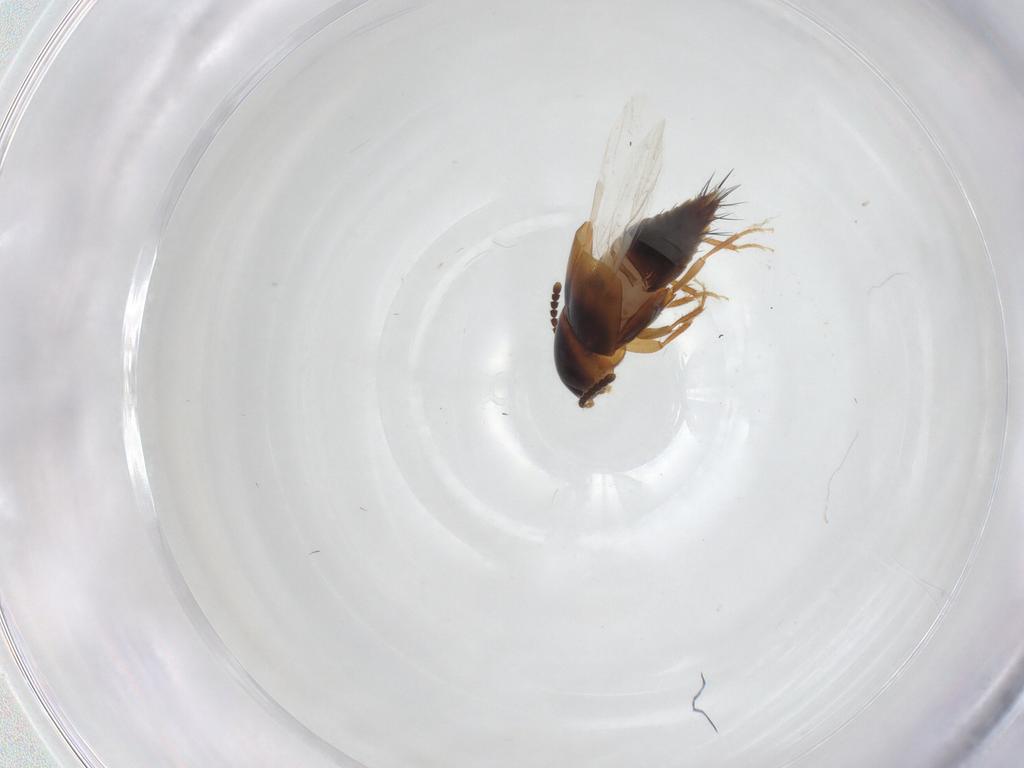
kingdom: Animalia
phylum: Arthropoda
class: Insecta
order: Coleoptera
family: Staphylinidae
